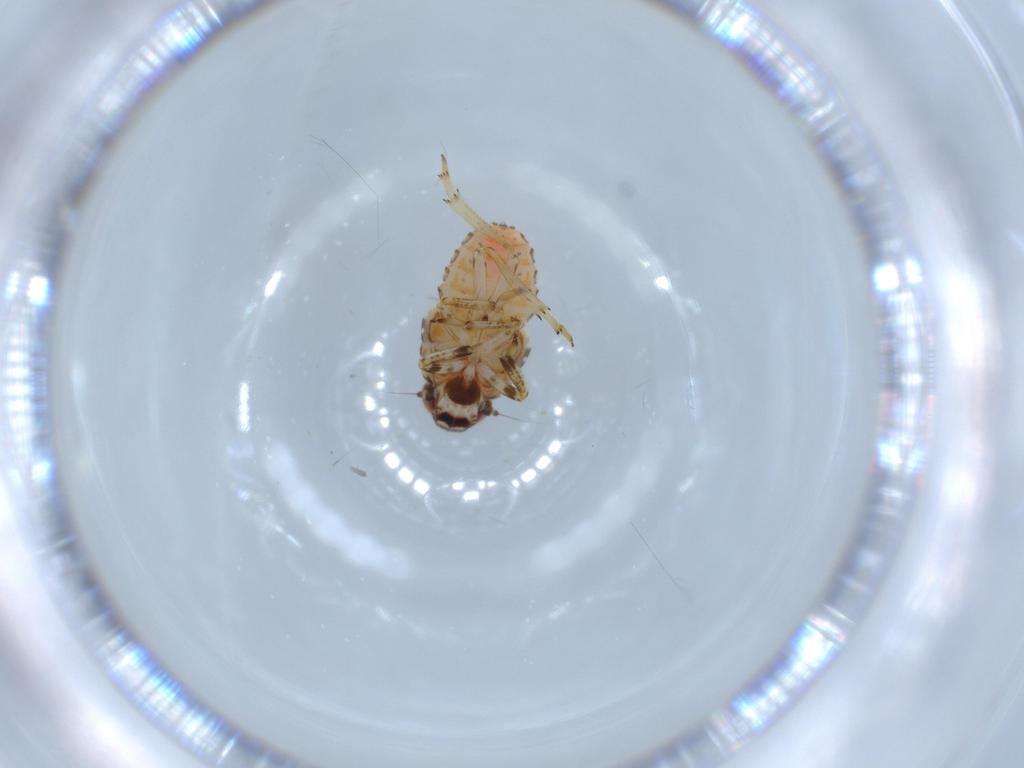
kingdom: Animalia
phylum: Arthropoda
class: Insecta
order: Hemiptera
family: Issidae
